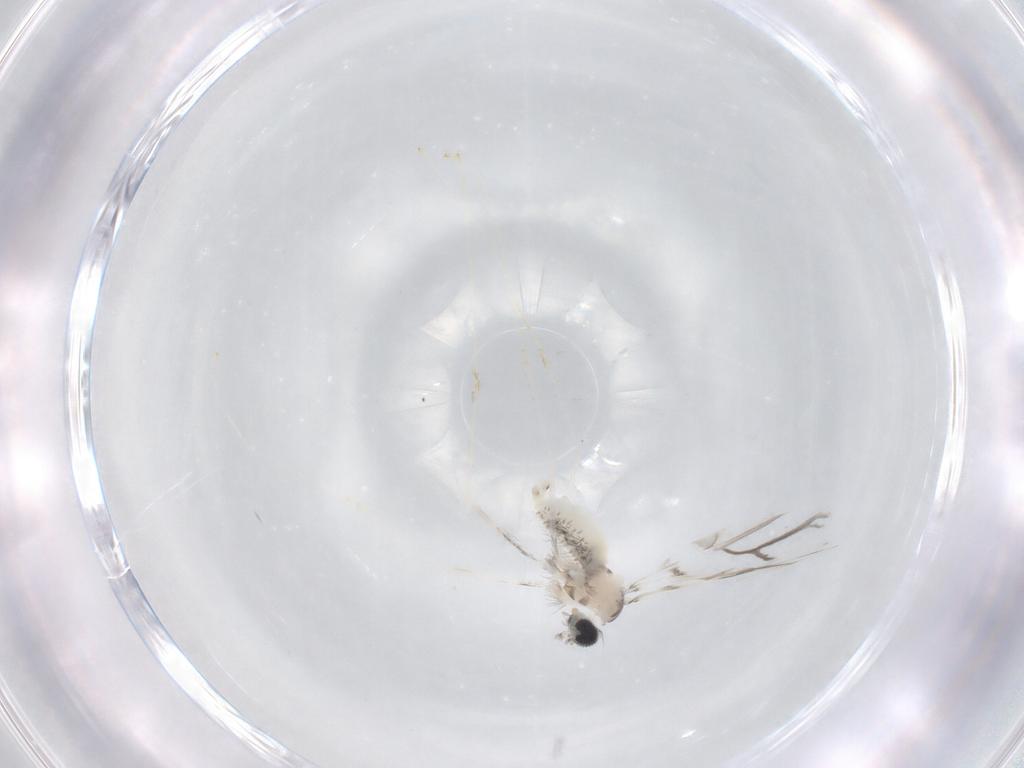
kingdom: Animalia
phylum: Arthropoda
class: Insecta
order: Diptera
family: Cecidomyiidae
